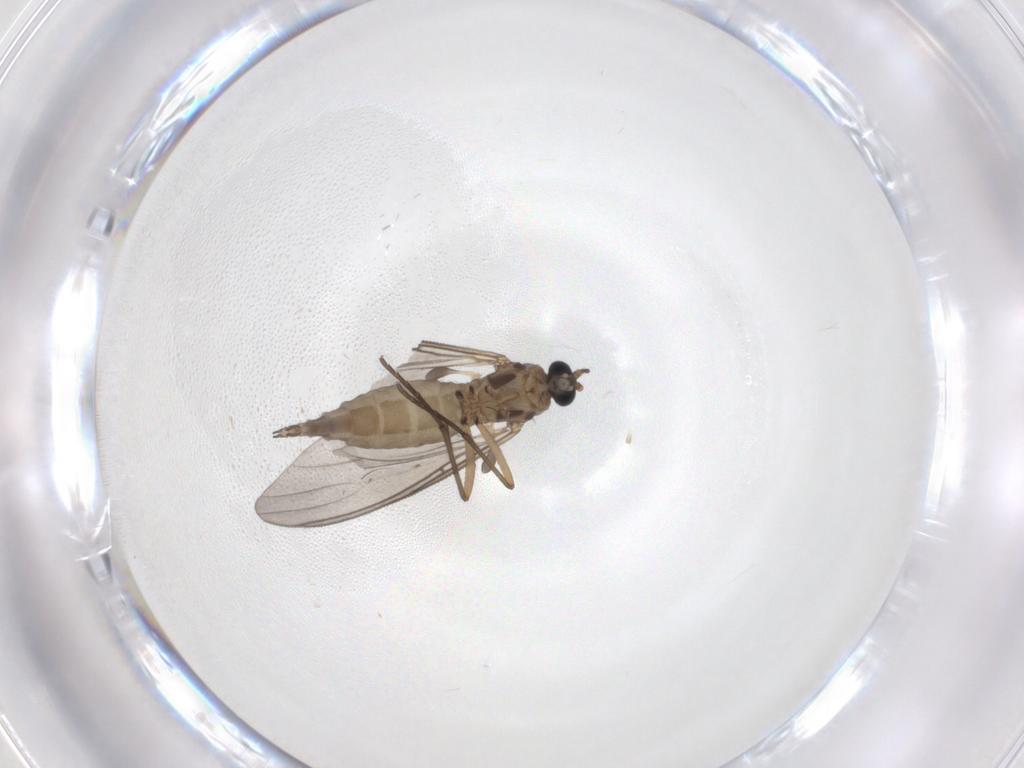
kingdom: Animalia
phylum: Arthropoda
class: Insecta
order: Diptera
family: Sciaridae
